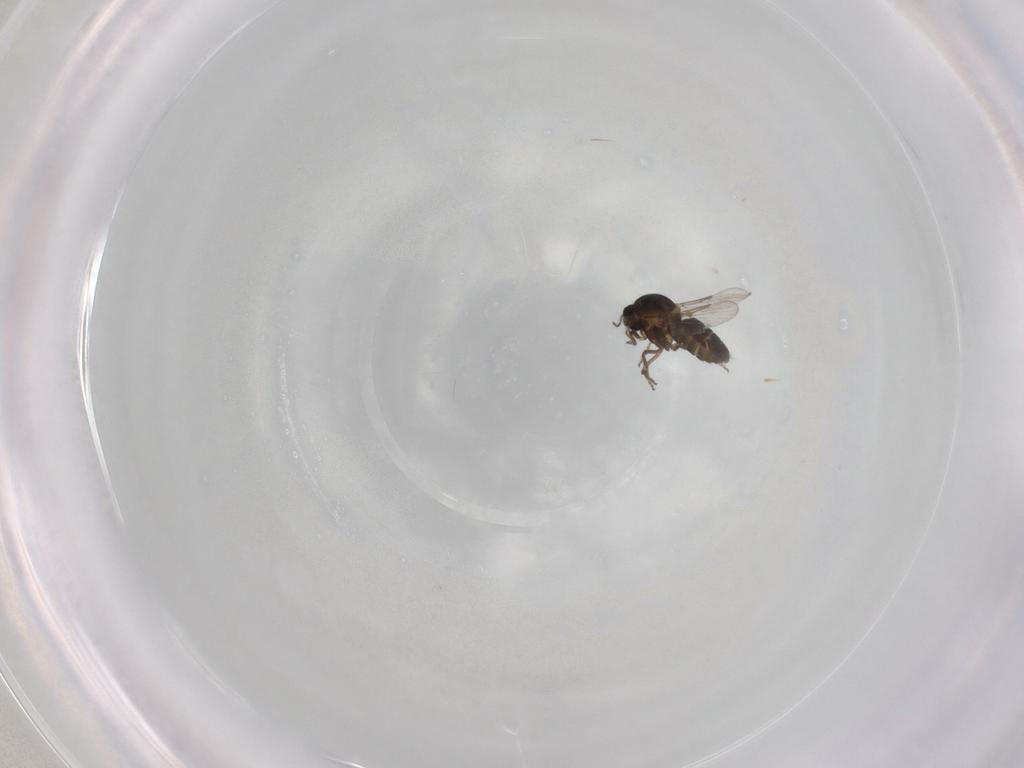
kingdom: Animalia
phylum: Arthropoda
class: Insecta
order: Diptera
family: Ceratopogonidae
